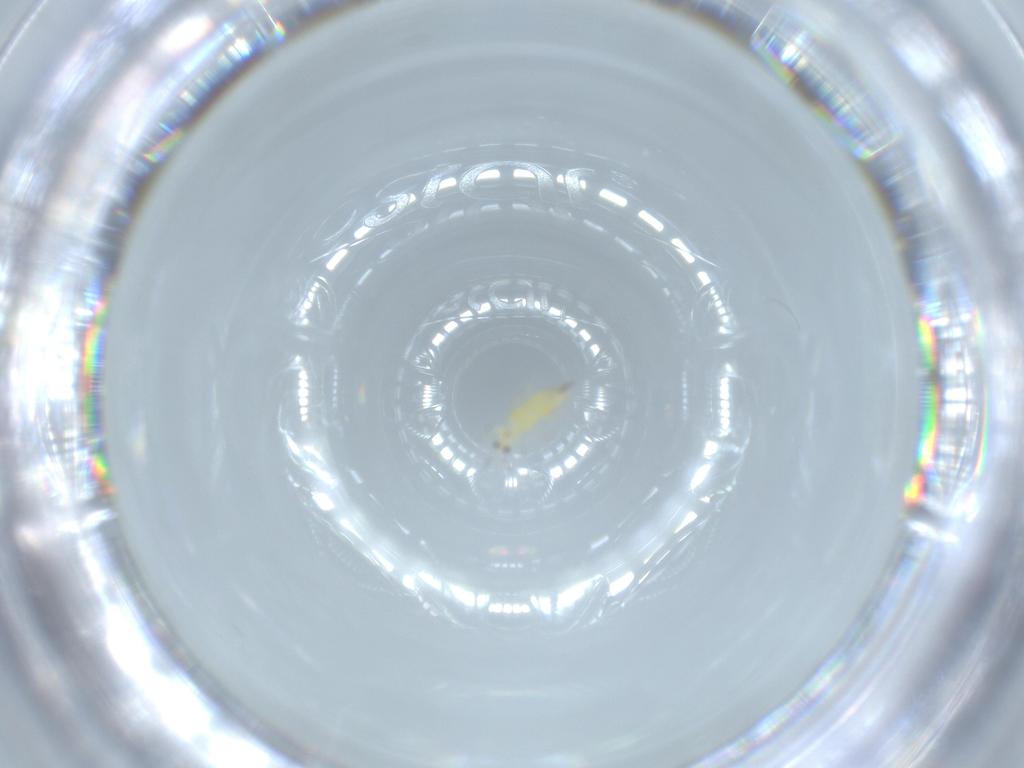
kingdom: Animalia
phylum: Arthropoda
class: Insecta
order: Thysanoptera
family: Thripidae
